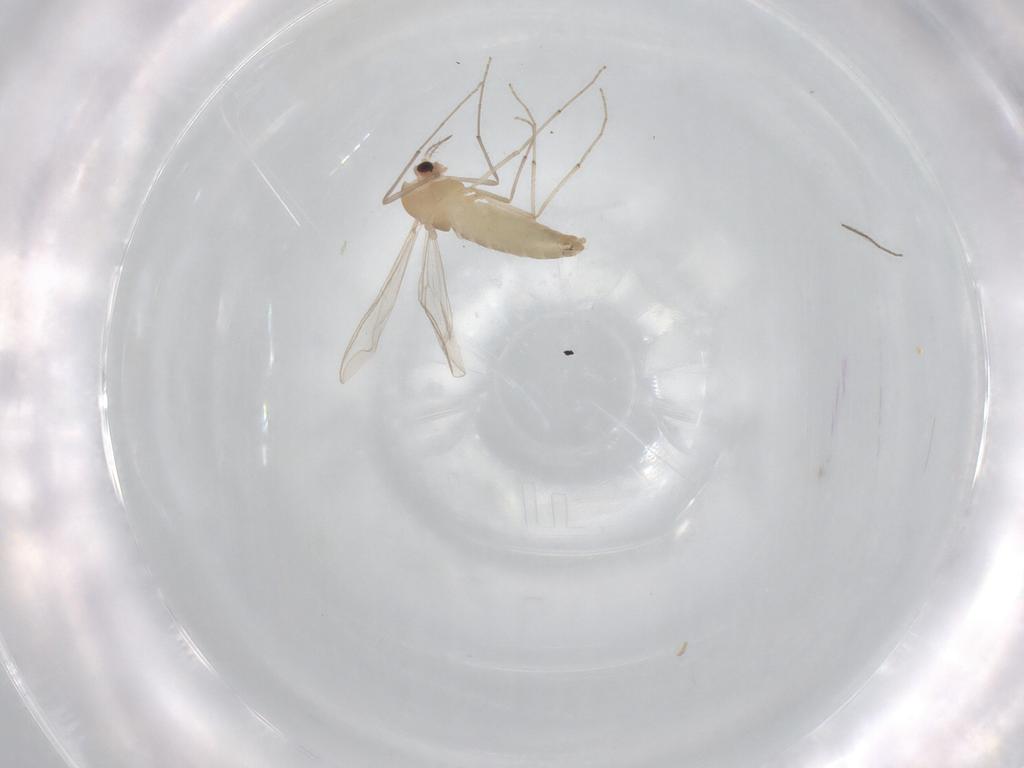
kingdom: Animalia
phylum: Arthropoda
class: Insecta
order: Diptera
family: Chironomidae
